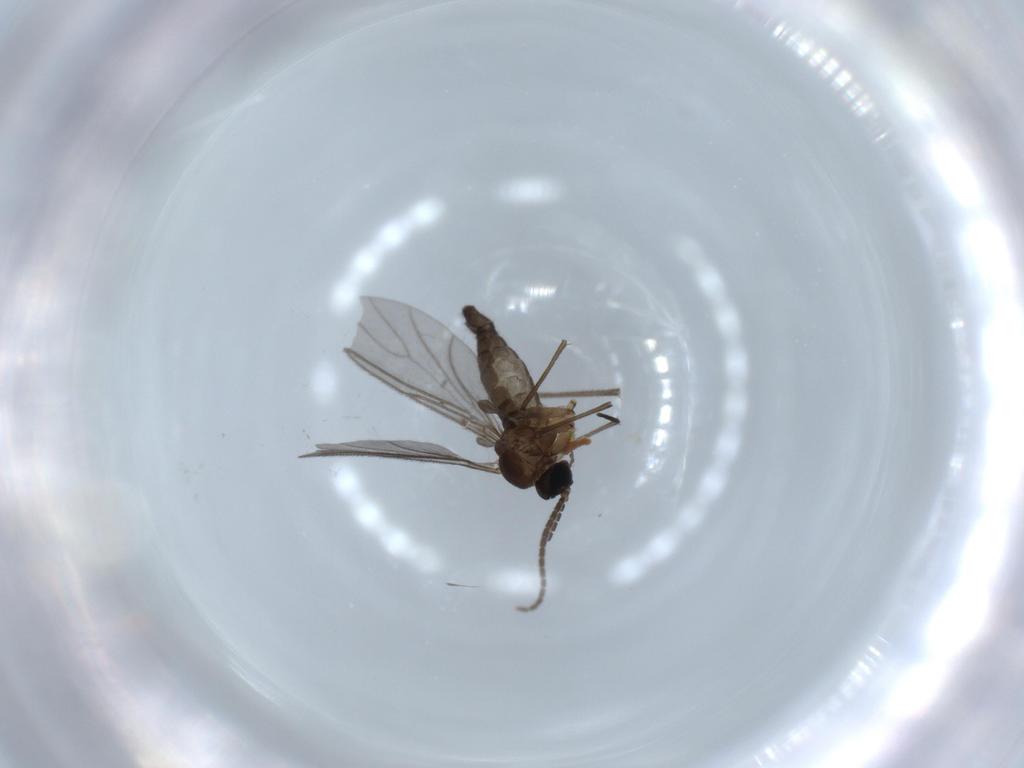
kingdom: Animalia
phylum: Arthropoda
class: Insecta
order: Diptera
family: Sciaridae
